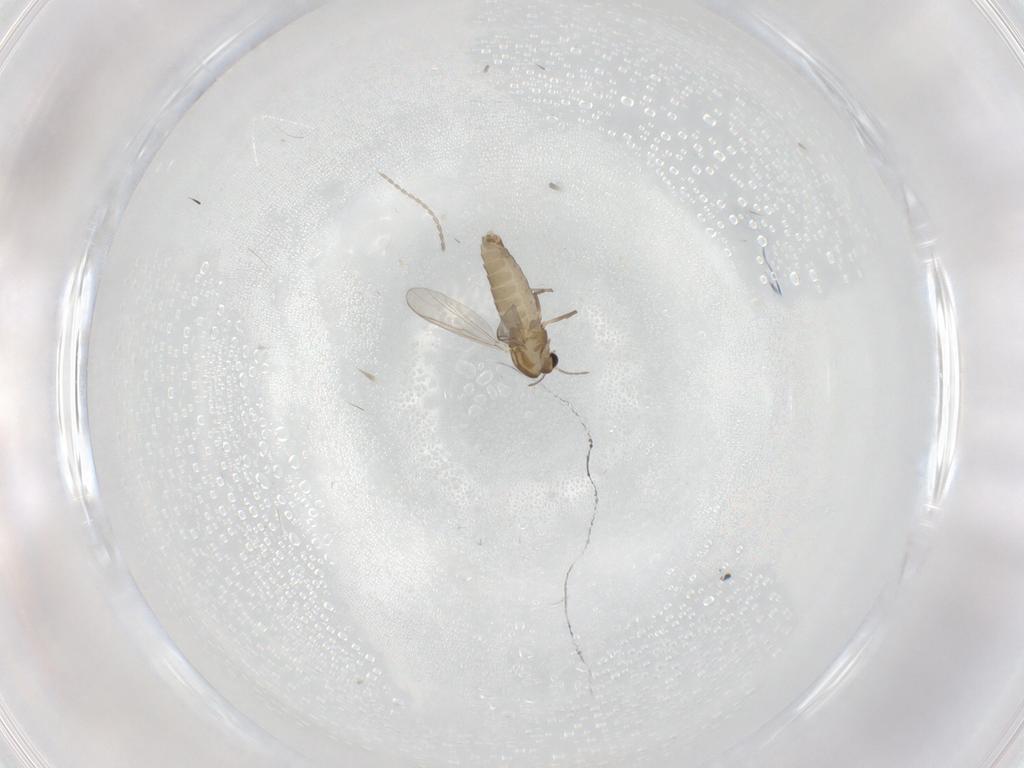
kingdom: Animalia
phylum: Arthropoda
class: Insecta
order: Diptera
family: Chironomidae
